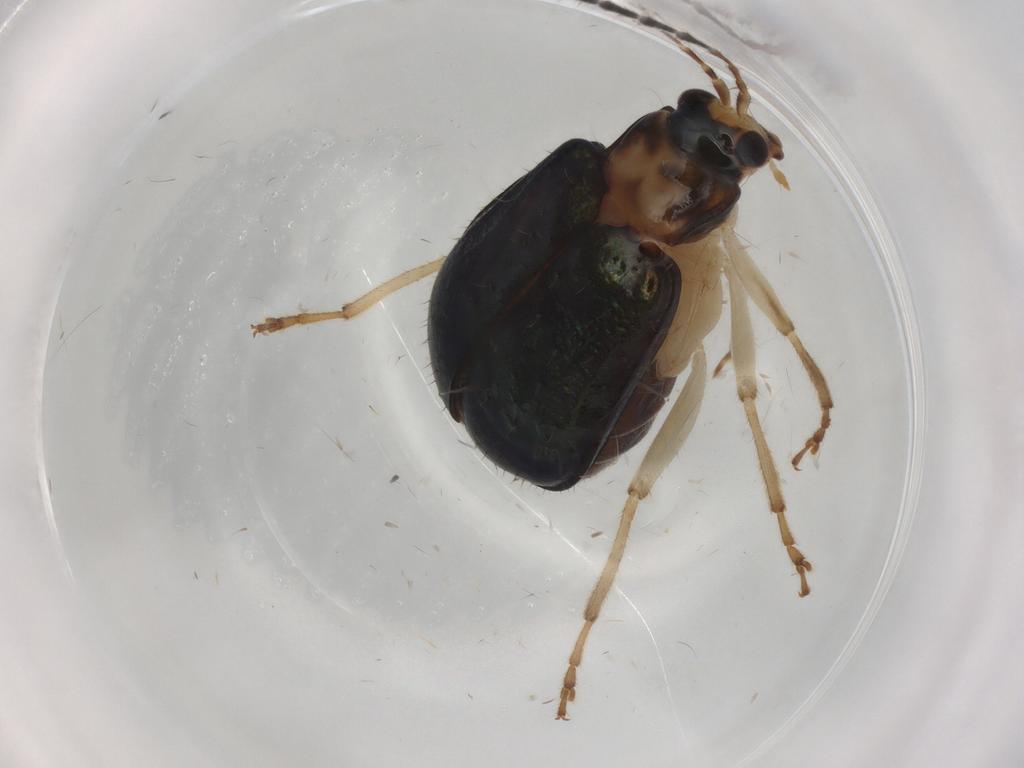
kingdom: Animalia
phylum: Arthropoda
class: Insecta
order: Coleoptera
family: Chrysomelidae
